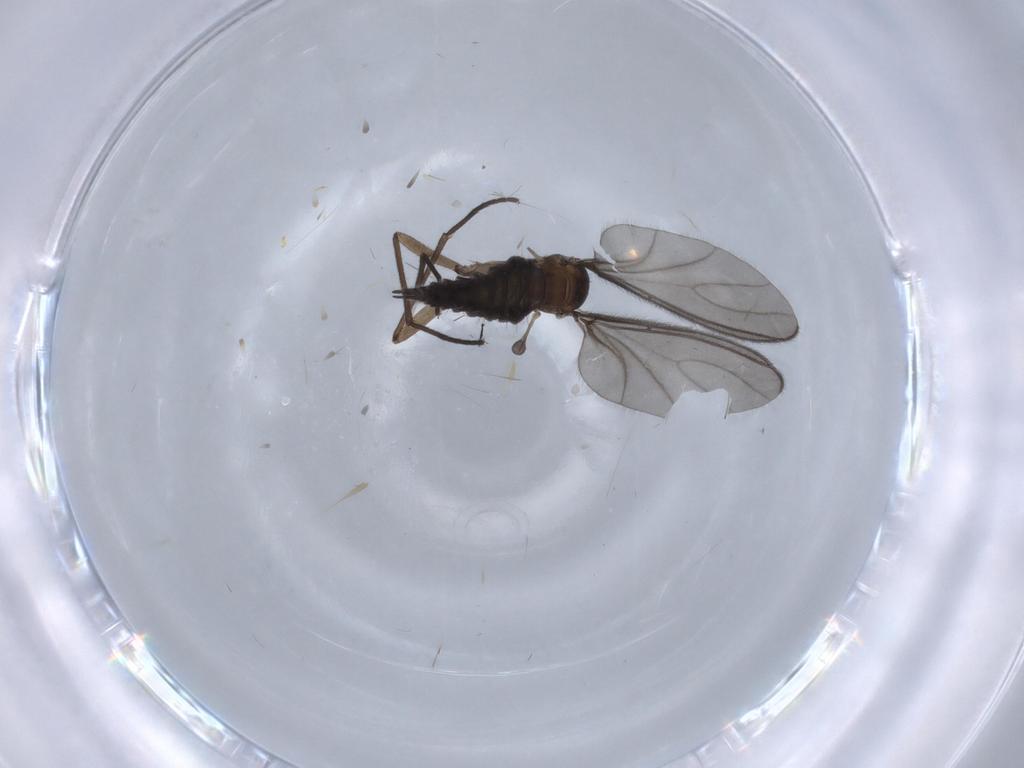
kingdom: Animalia
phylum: Arthropoda
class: Insecta
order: Diptera
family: Sciaridae
